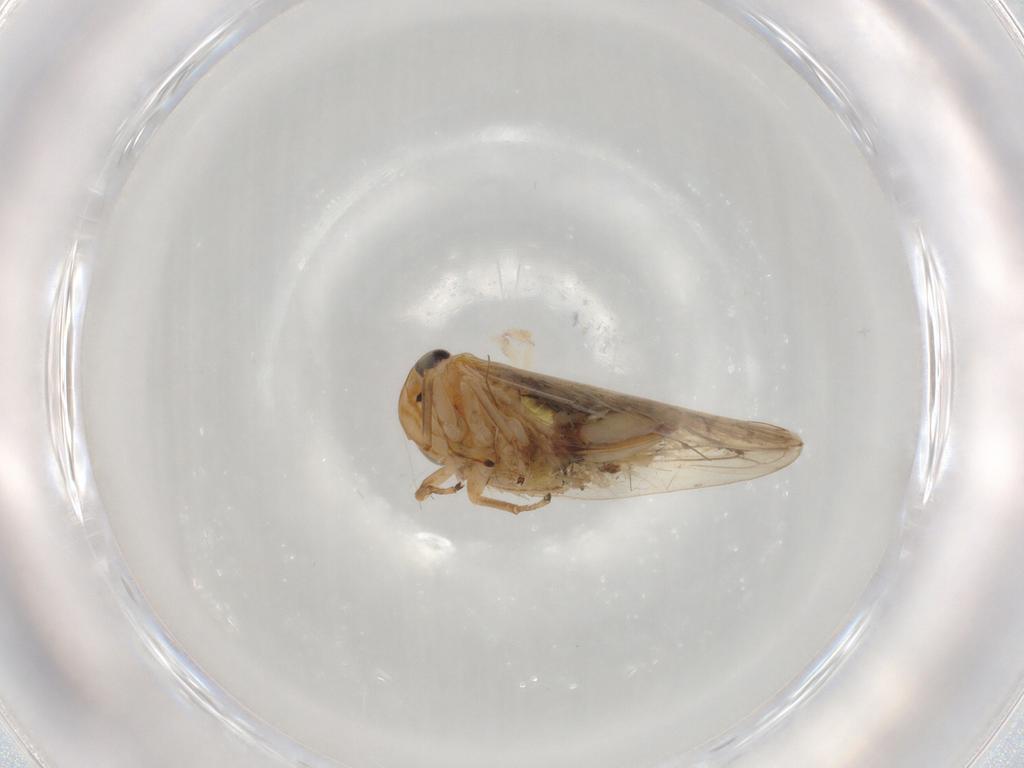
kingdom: Animalia
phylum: Arthropoda
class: Insecta
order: Hemiptera
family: Cicadellidae
